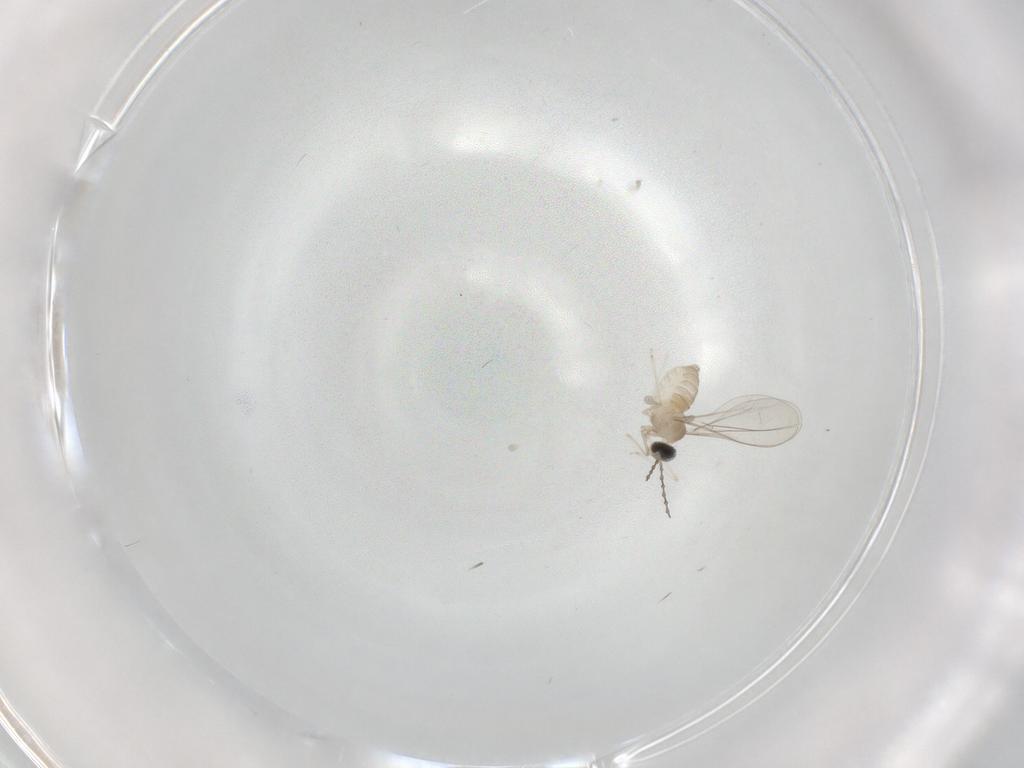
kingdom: Animalia
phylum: Arthropoda
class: Insecta
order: Diptera
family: Cecidomyiidae
